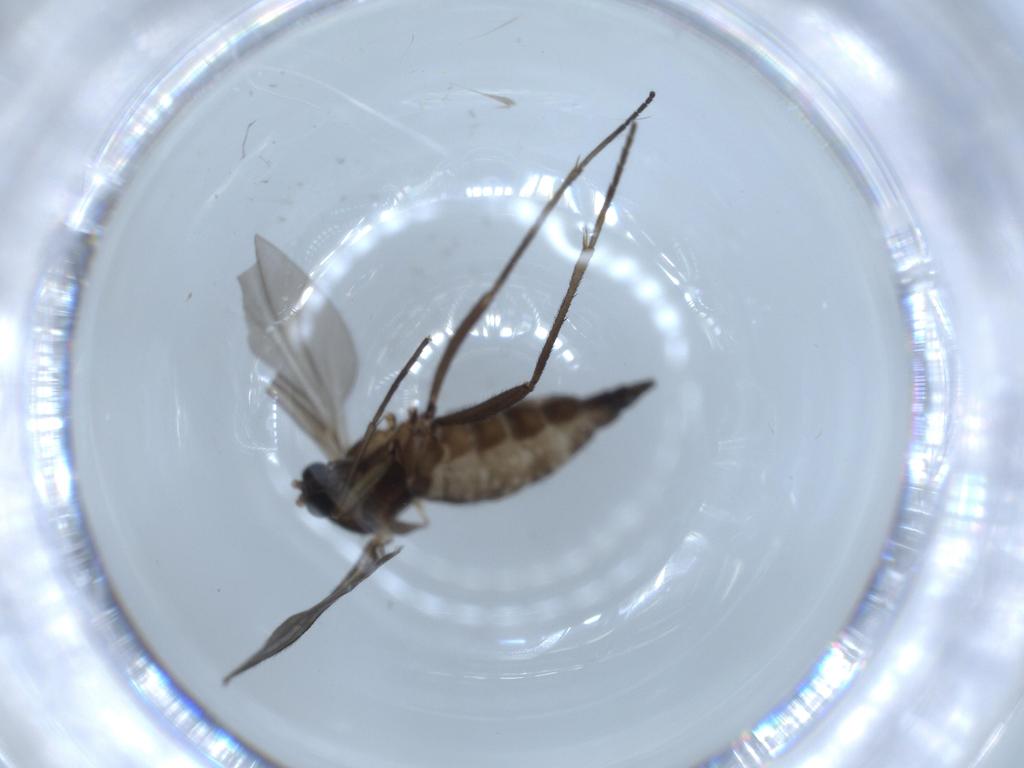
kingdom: Animalia
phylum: Arthropoda
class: Insecta
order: Diptera
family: Sciaridae
